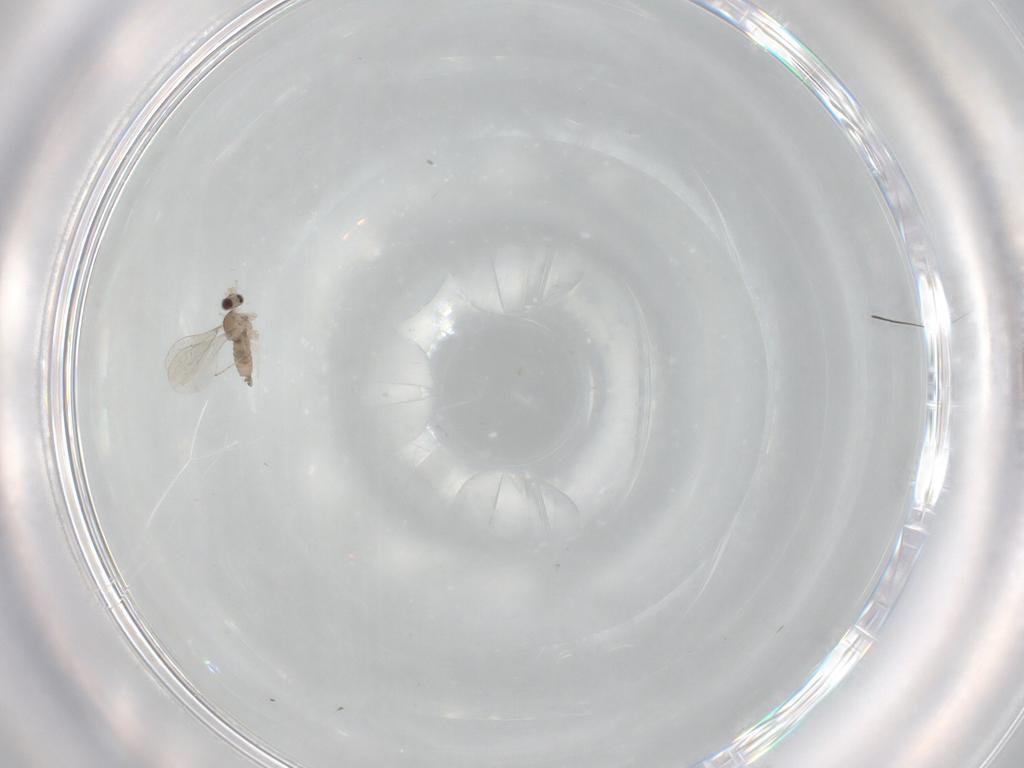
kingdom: Animalia
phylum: Arthropoda
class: Insecta
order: Diptera
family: Cecidomyiidae
